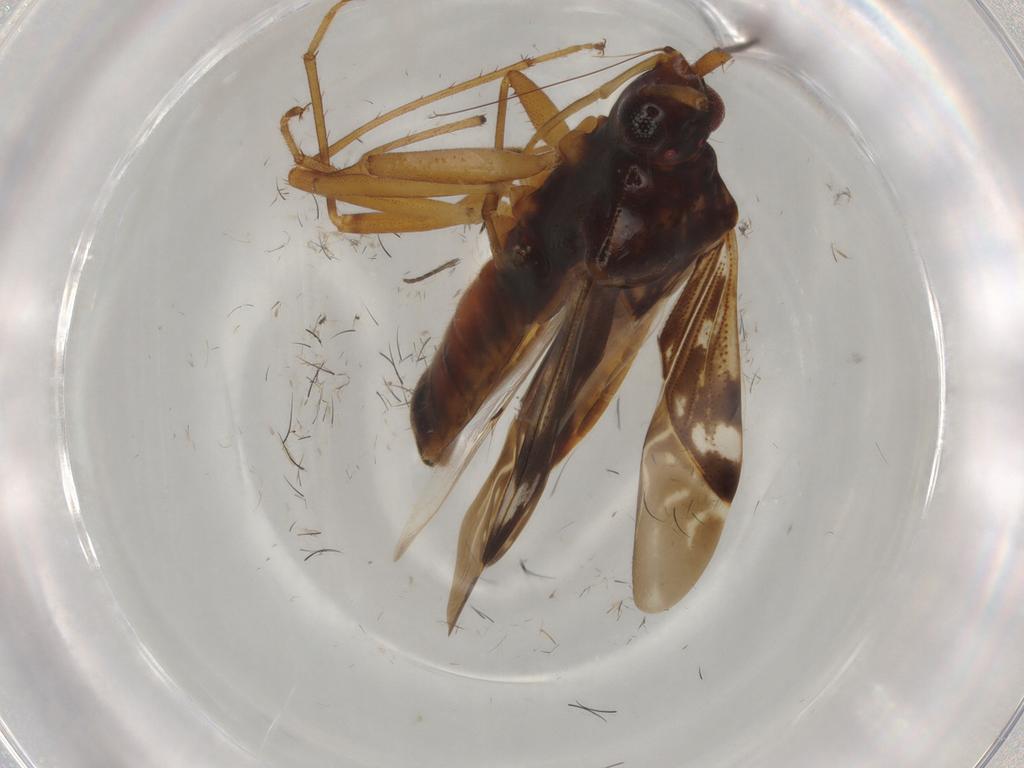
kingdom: Animalia
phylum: Arthropoda
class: Insecta
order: Hemiptera
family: Rhyparochromidae
